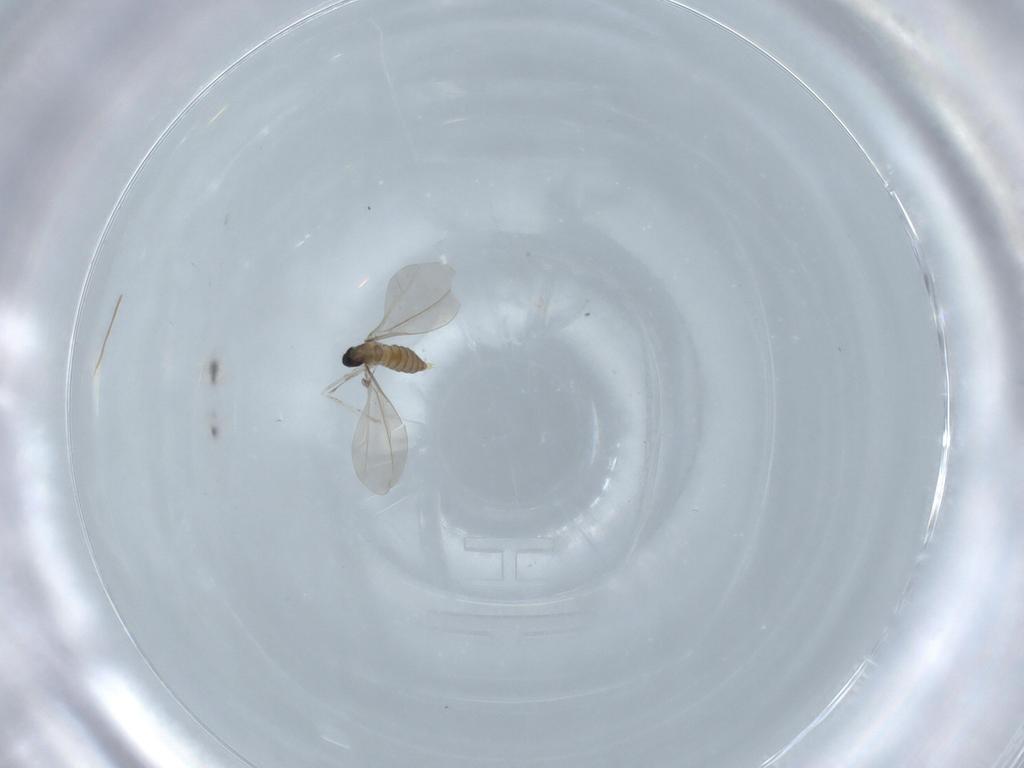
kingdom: Animalia
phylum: Arthropoda
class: Insecta
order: Diptera
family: Cecidomyiidae
